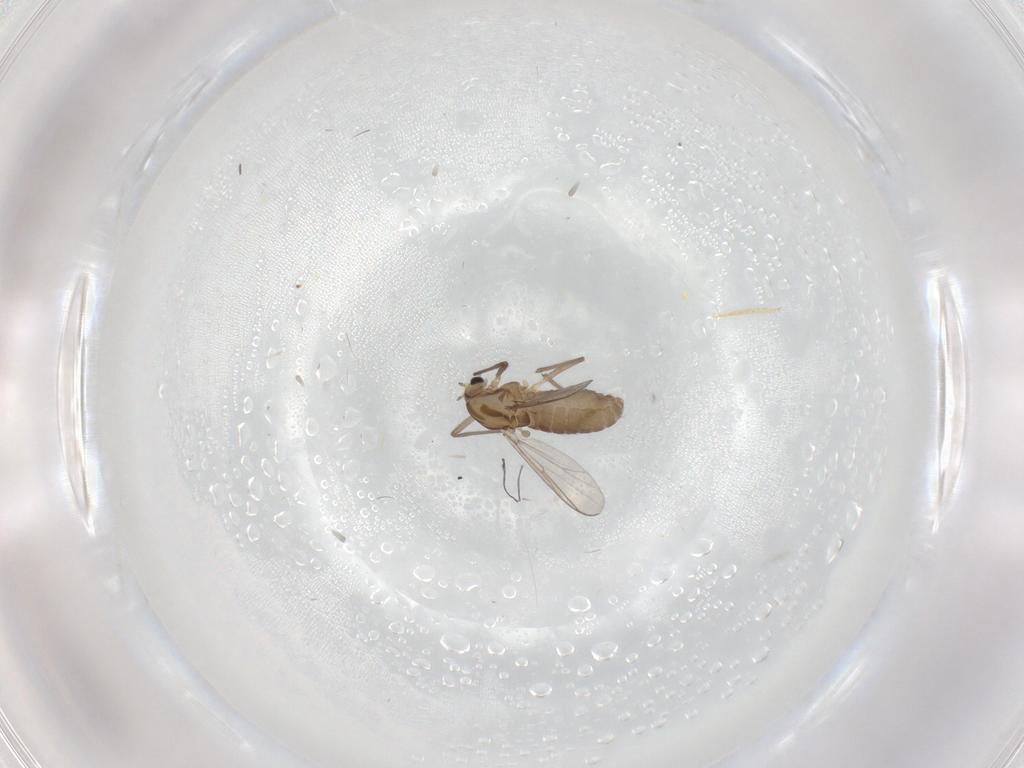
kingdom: Animalia
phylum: Arthropoda
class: Insecta
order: Diptera
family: Chironomidae
